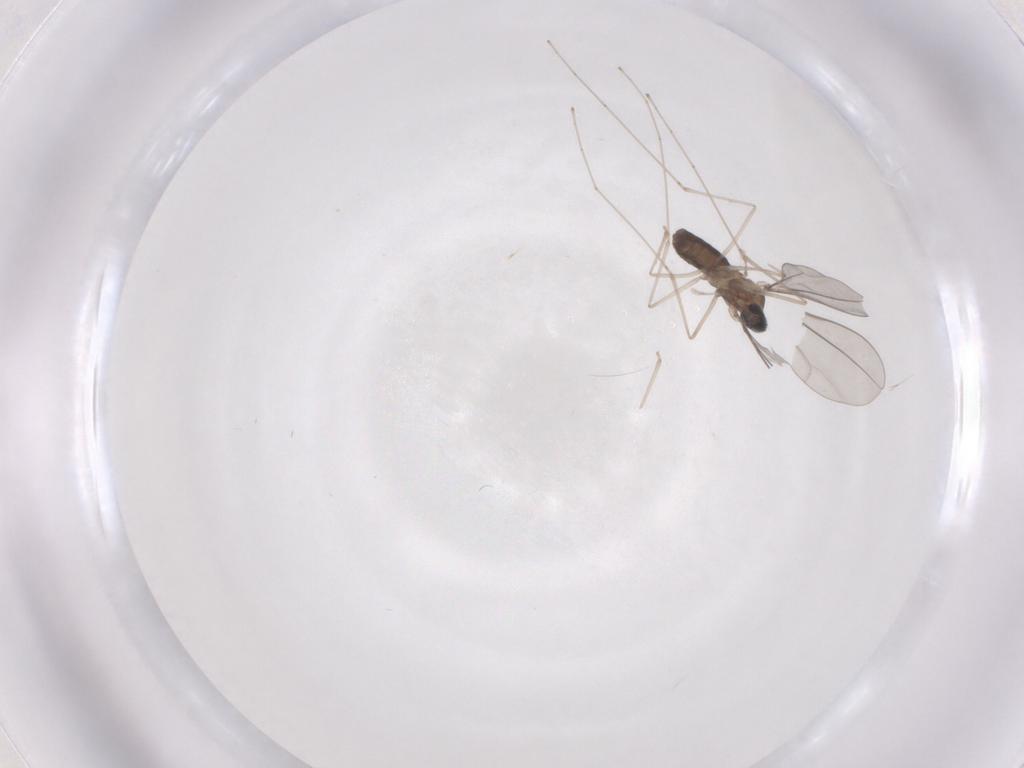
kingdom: Animalia
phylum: Arthropoda
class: Insecta
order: Diptera
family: Cecidomyiidae
